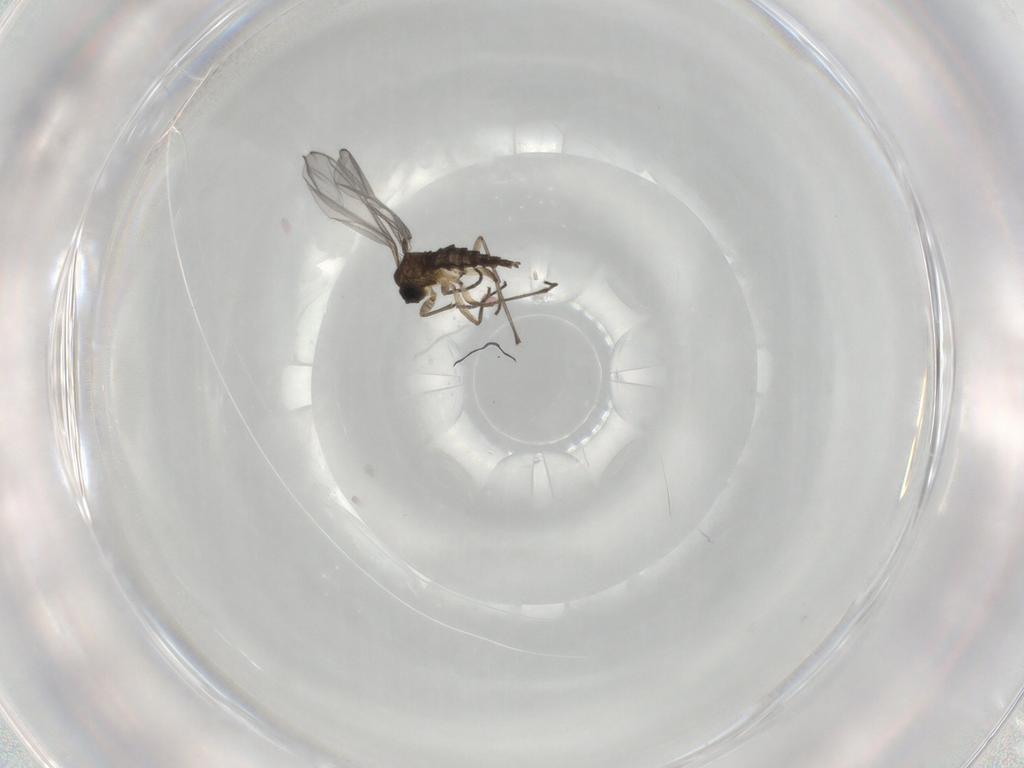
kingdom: Animalia
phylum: Arthropoda
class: Insecta
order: Diptera
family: Sciaridae
